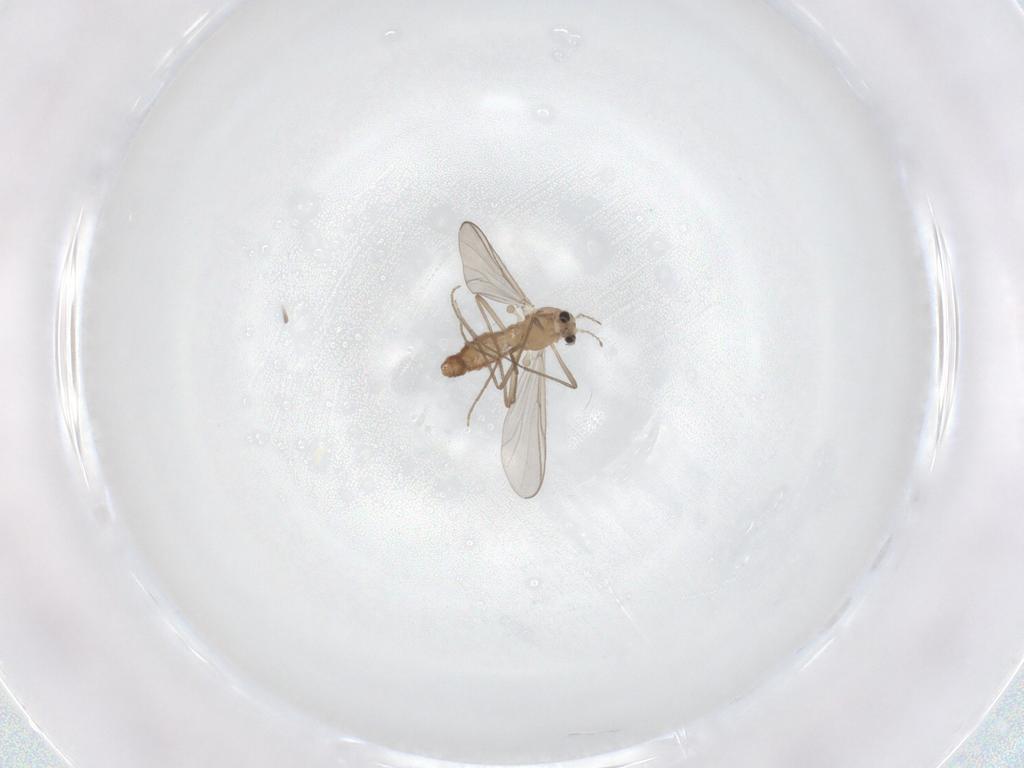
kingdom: Animalia
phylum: Arthropoda
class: Insecta
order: Diptera
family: Chironomidae
